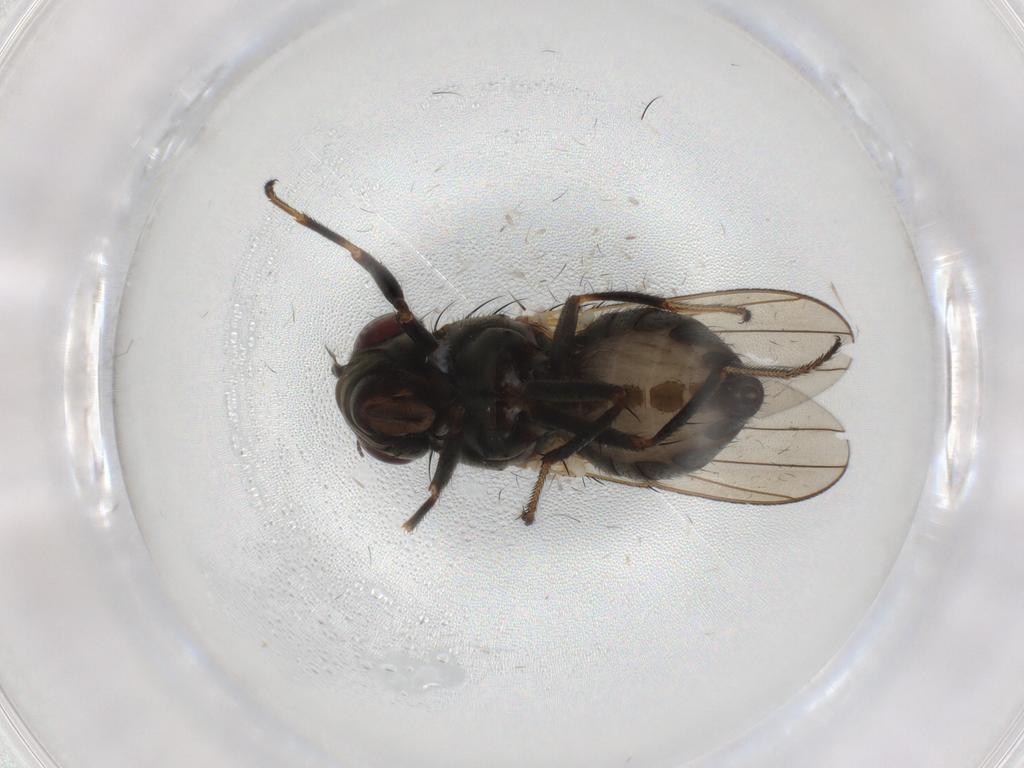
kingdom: Animalia
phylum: Arthropoda
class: Insecta
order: Diptera
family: Ephydridae
